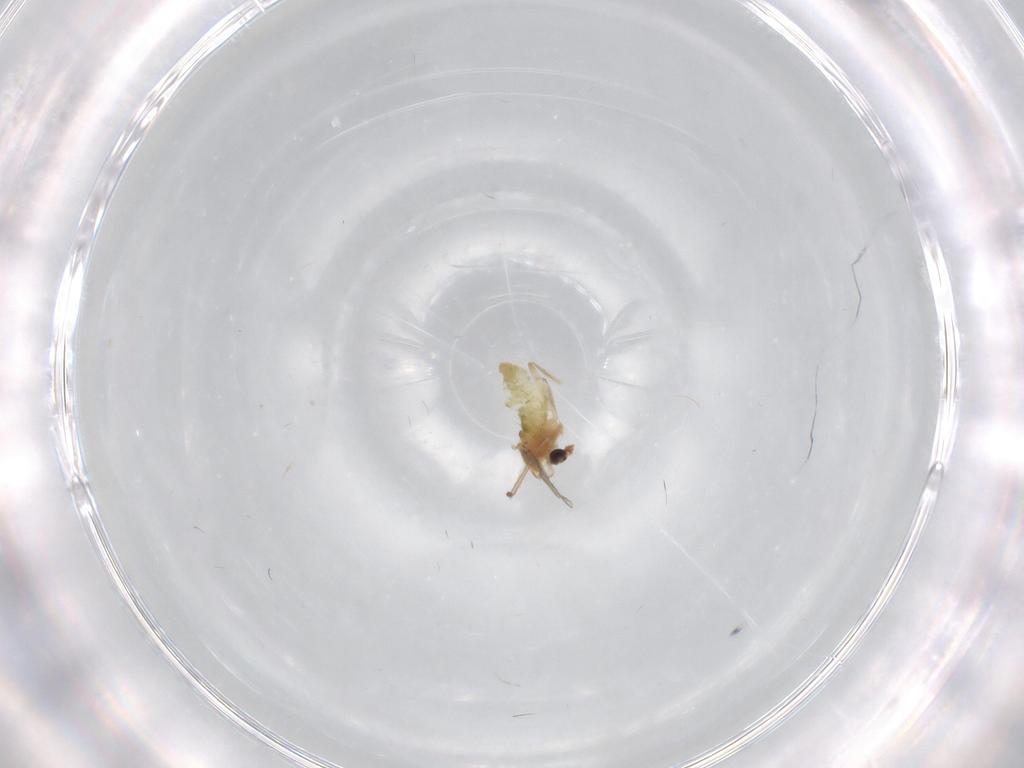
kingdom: Animalia
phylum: Arthropoda
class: Insecta
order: Diptera
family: Chironomidae
